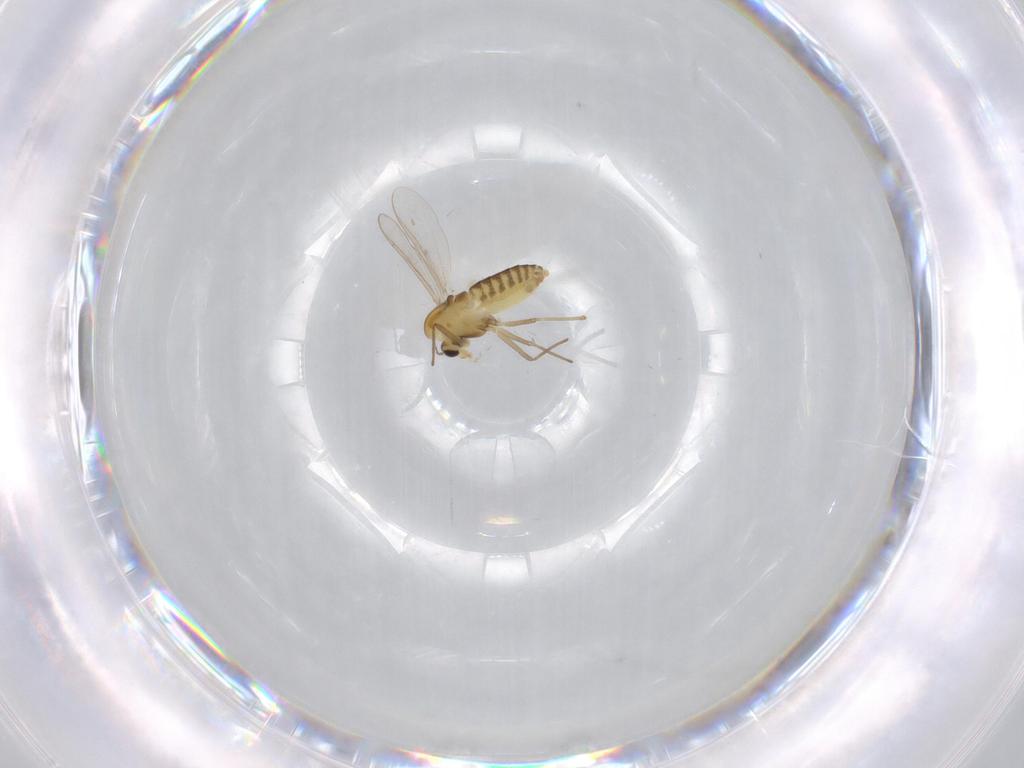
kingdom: Animalia
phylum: Arthropoda
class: Insecta
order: Diptera
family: Chironomidae
